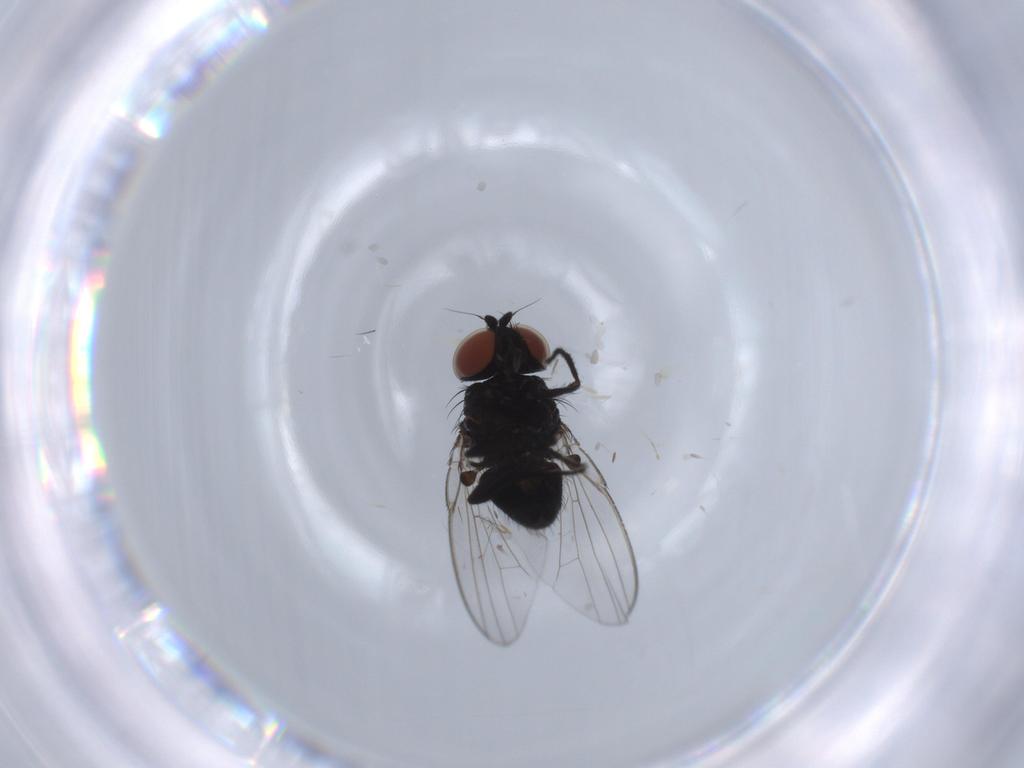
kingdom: Animalia
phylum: Arthropoda
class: Insecta
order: Diptera
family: Milichiidae
